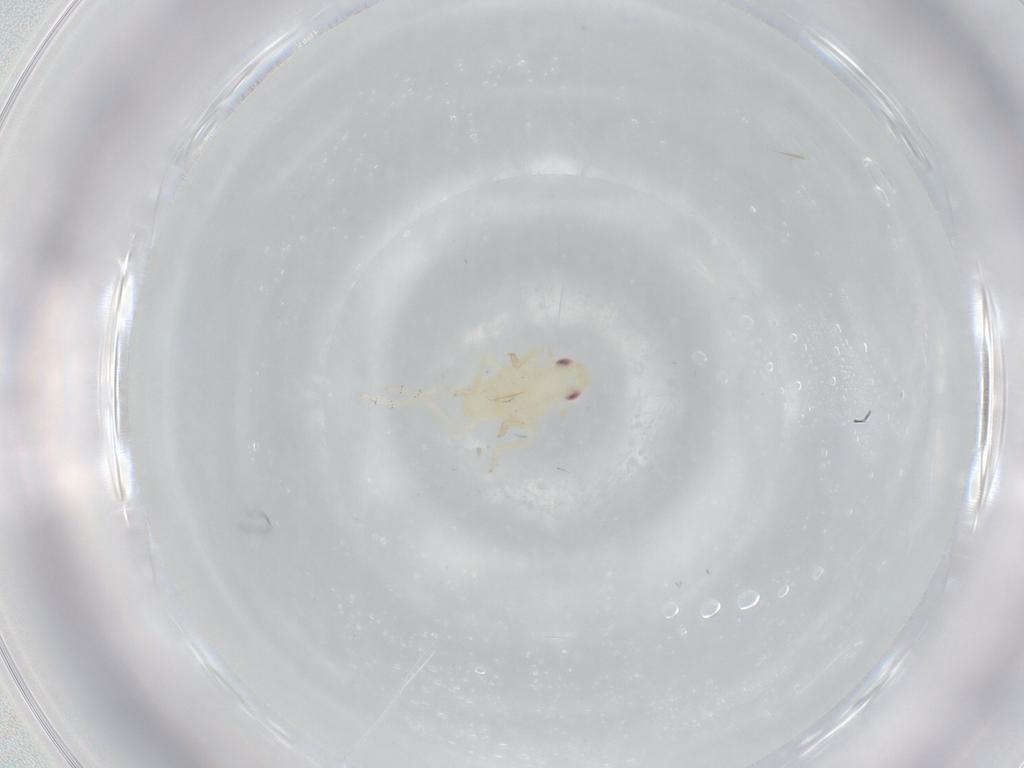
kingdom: Animalia
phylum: Arthropoda
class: Insecta
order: Hemiptera
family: Tropiduchidae
